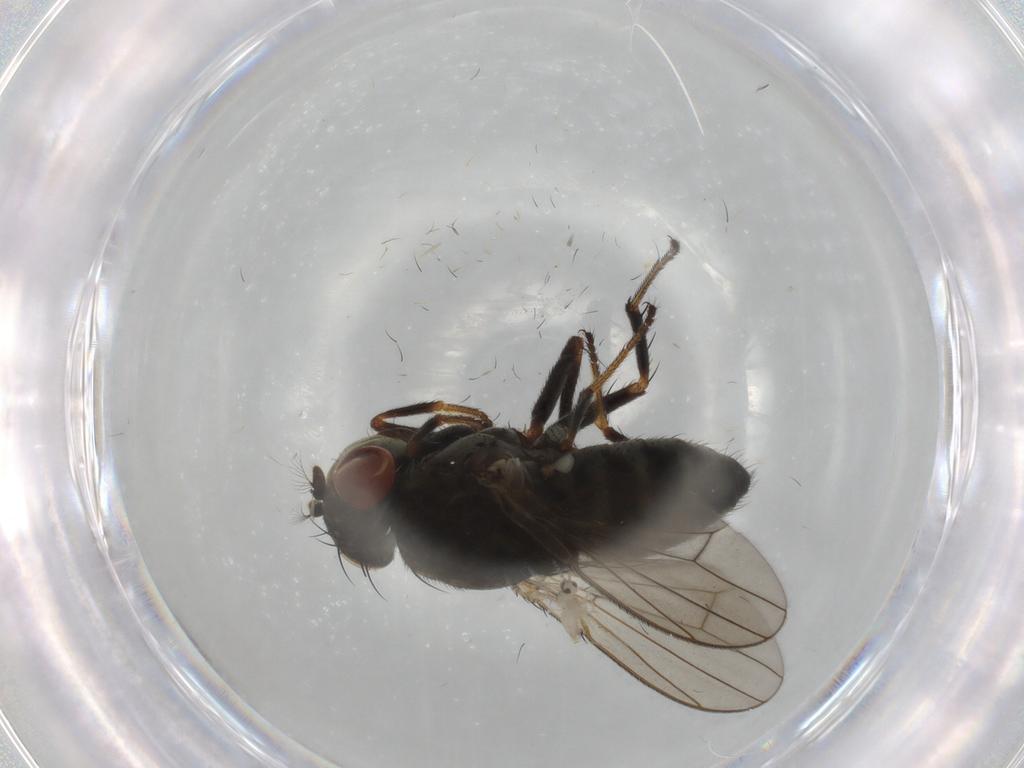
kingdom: Animalia
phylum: Arthropoda
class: Insecta
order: Diptera
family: Ephydridae
